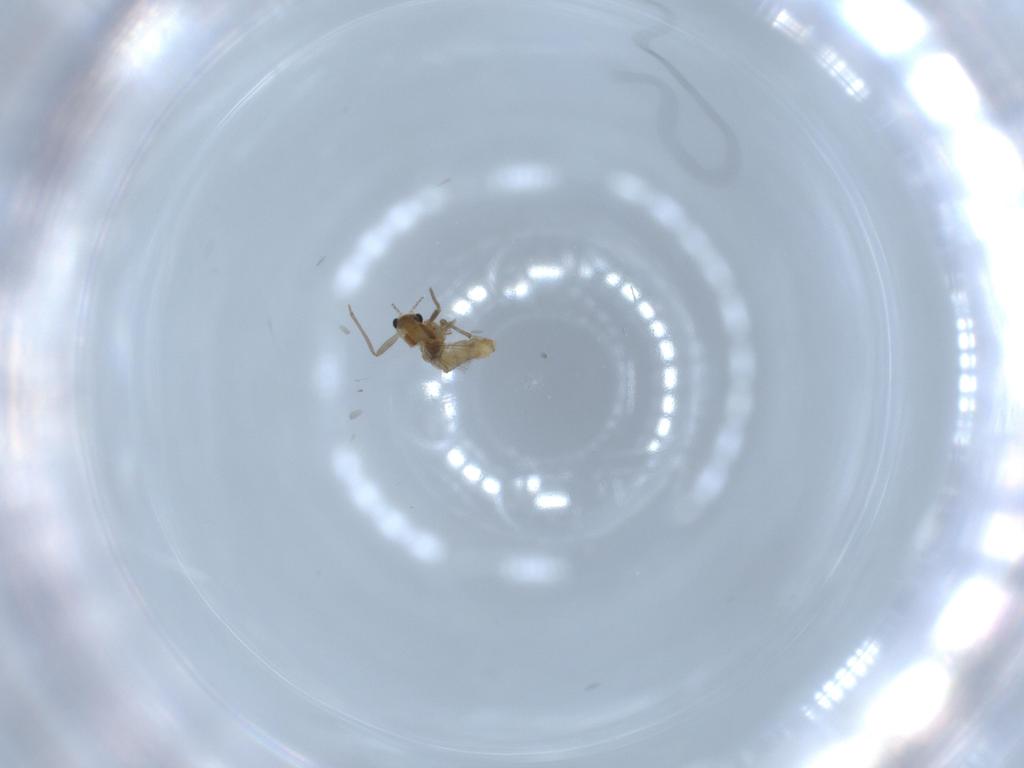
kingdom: Animalia
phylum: Arthropoda
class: Insecta
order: Diptera
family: Chironomidae
